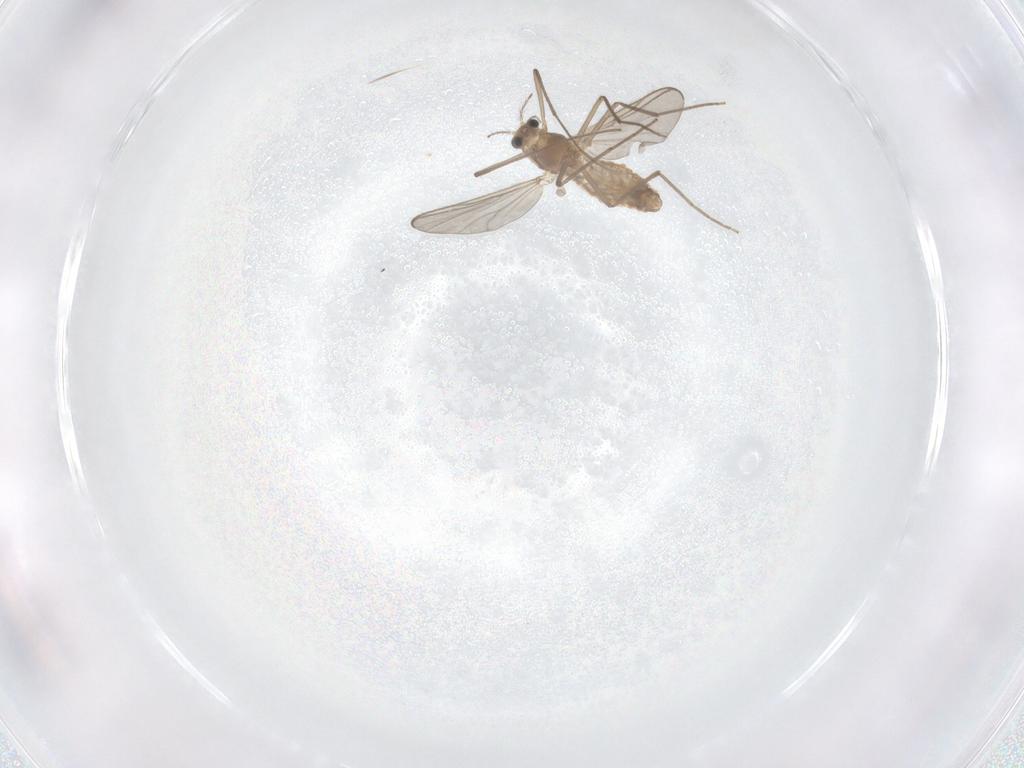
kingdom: Animalia
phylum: Arthropoda
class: Insecta
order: Diptera
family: Chironomidae
